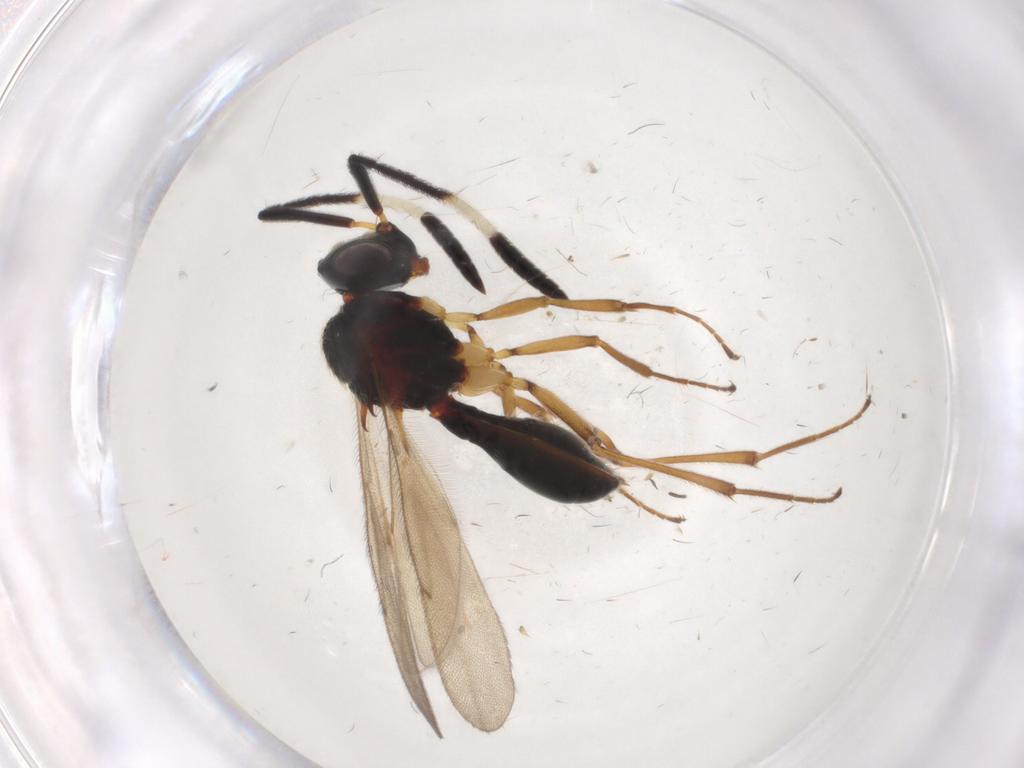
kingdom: Animalia
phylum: Arthropoda
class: Insecta
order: Hymenoptera
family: Scelionidae
